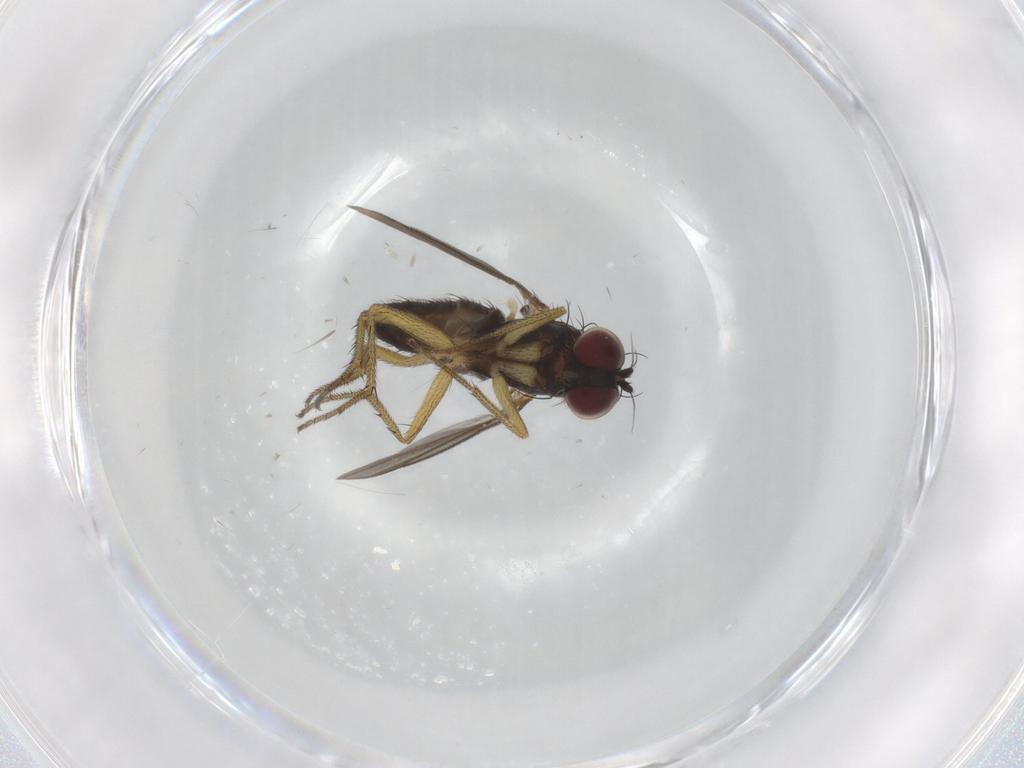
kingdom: Animalia
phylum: Arthropoda
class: Insecta
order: Diptera
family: Dolichopodidae
